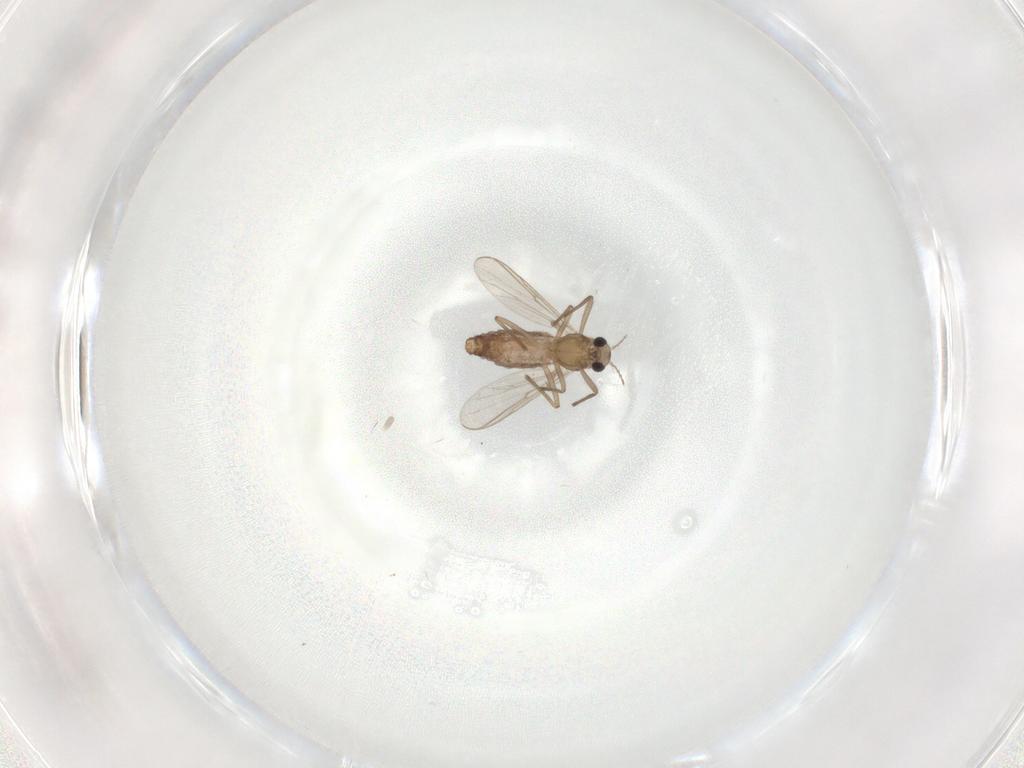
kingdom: Animalia
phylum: Arthropoda
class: Insecta
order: Diptera
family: Chironomidae
